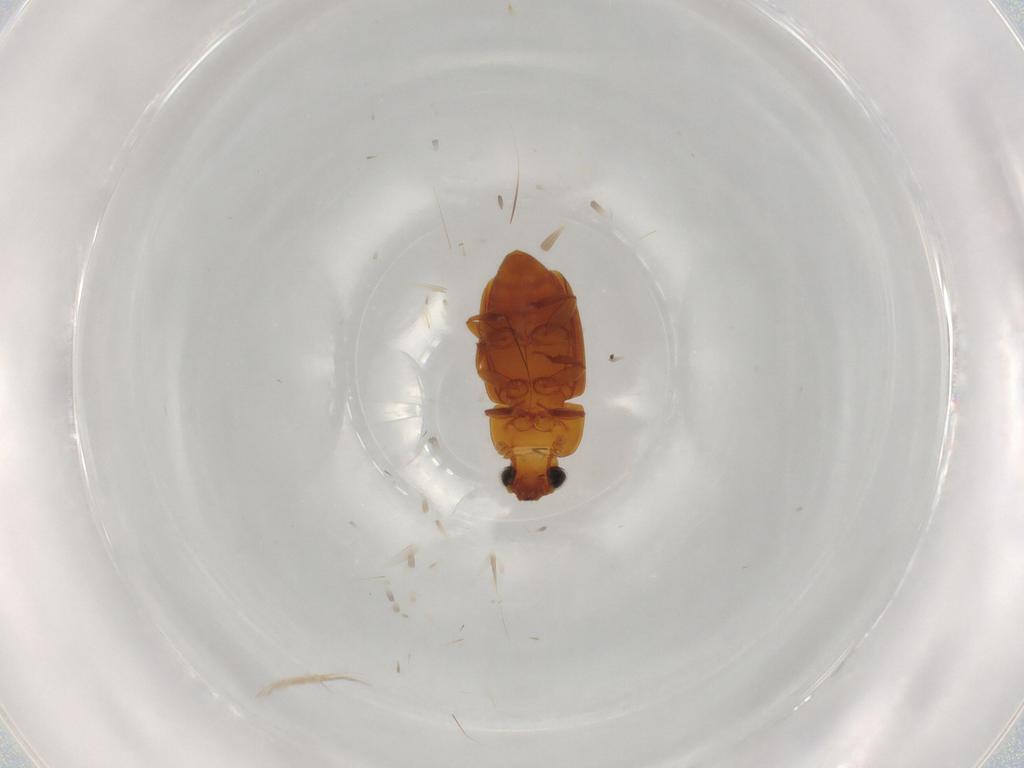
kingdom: Animalia
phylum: Arthropoda
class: Insecta
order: Coleoptera
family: Nitidulidae
